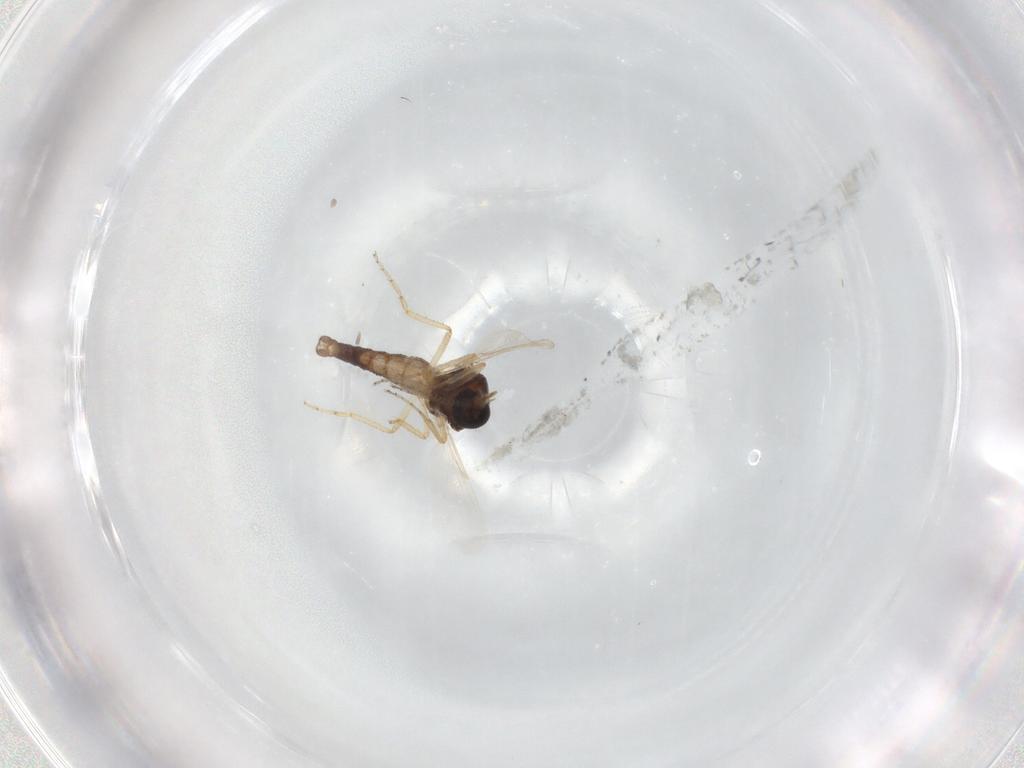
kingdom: Animalia
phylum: Arthropoda
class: Insecta
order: Diptera
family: Ceratopogonidae
